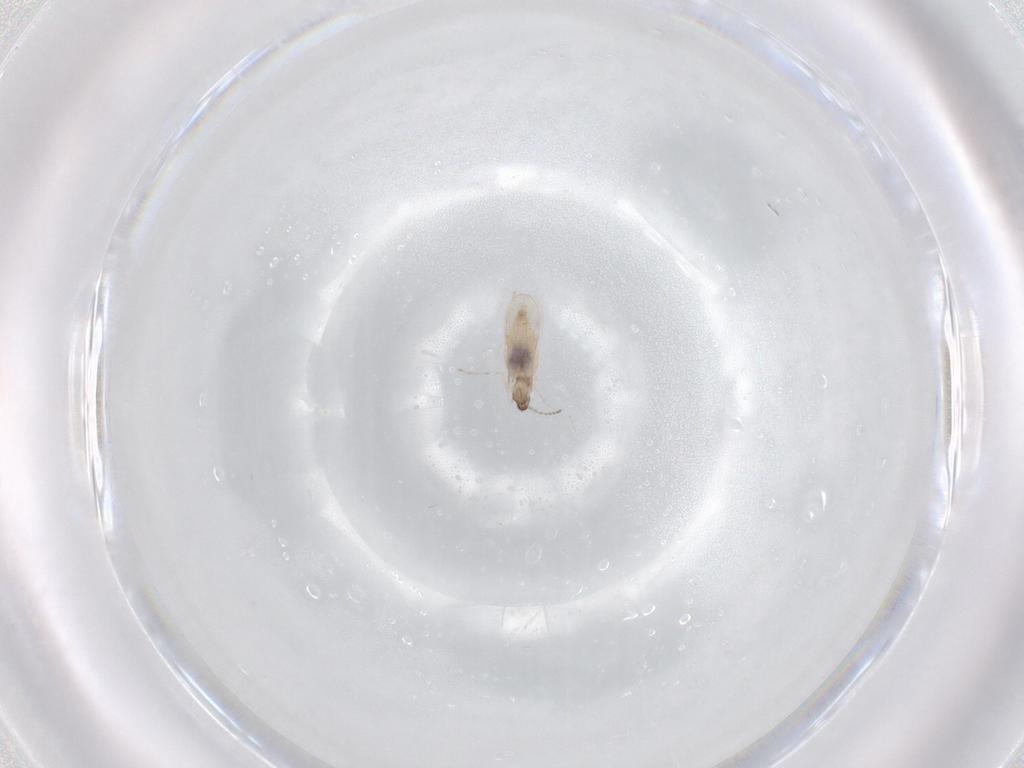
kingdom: Animalia
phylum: Arthropoda
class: Insecta
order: Diptera
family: Cecidomyiidae
